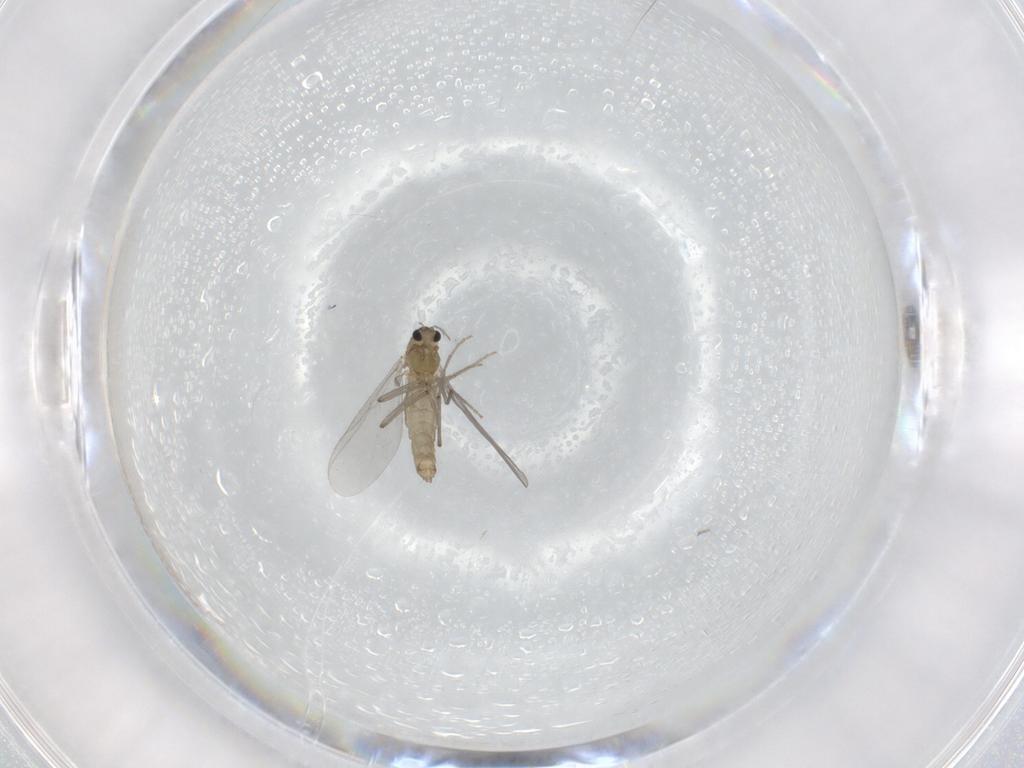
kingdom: Animalia
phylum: Arthropoda
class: Insecta
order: Diptera
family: Chironomidae
